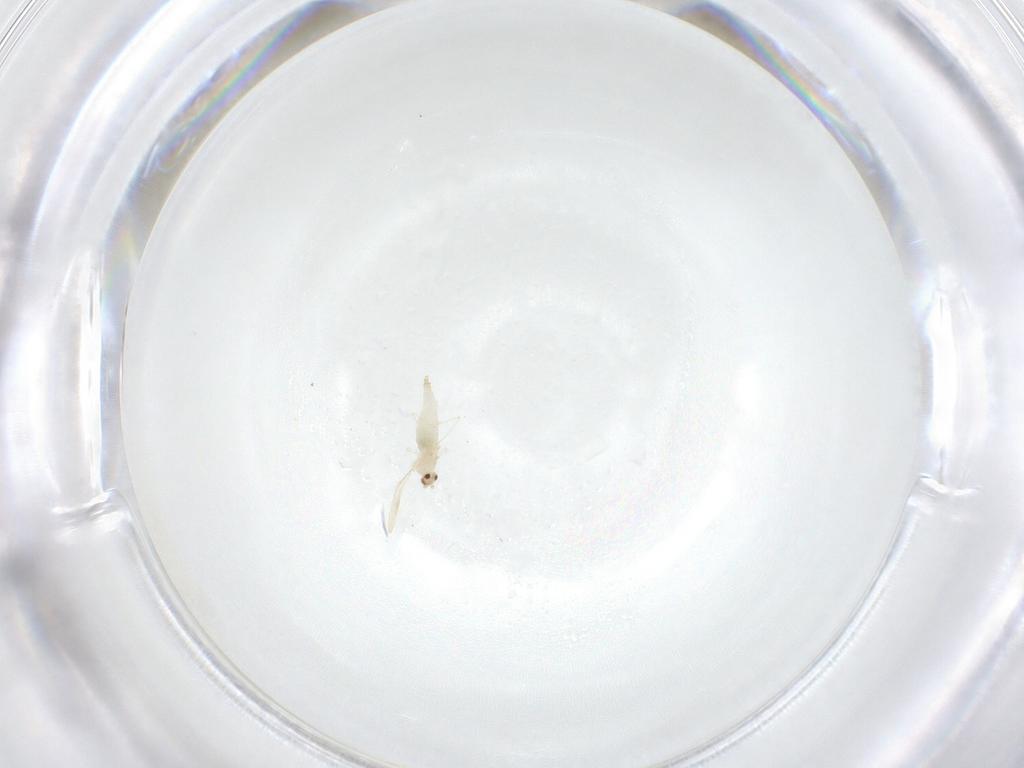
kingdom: Animalia
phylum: Arthropoda
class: Insecta
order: Diptera
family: Cecidomyiidae
